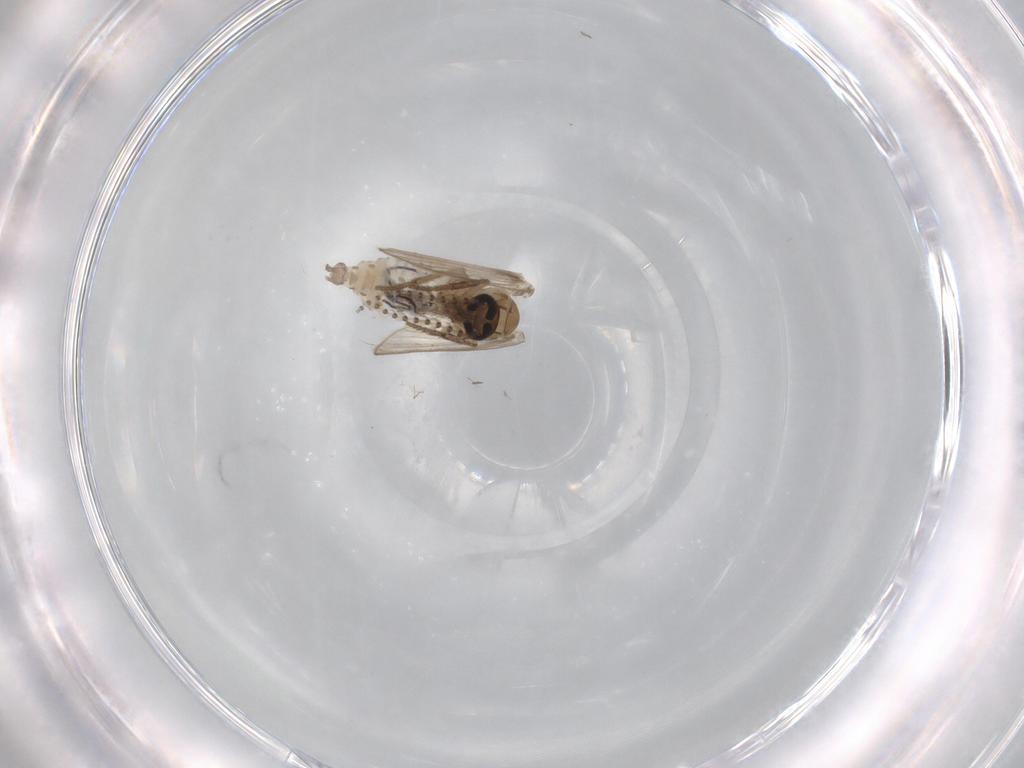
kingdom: Animalia
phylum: Arthropoda
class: Insecta
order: Diptera
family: Psychodidae
